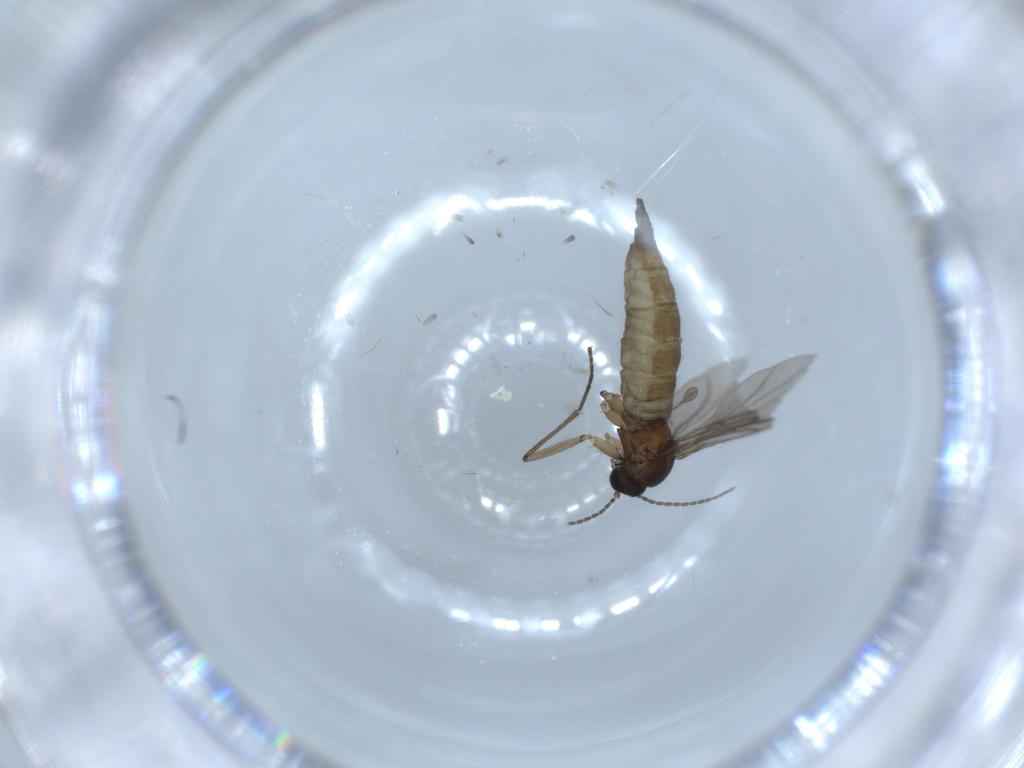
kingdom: Animalia
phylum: Arthropoda
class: Insecta
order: Diptera
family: Sciaridae
